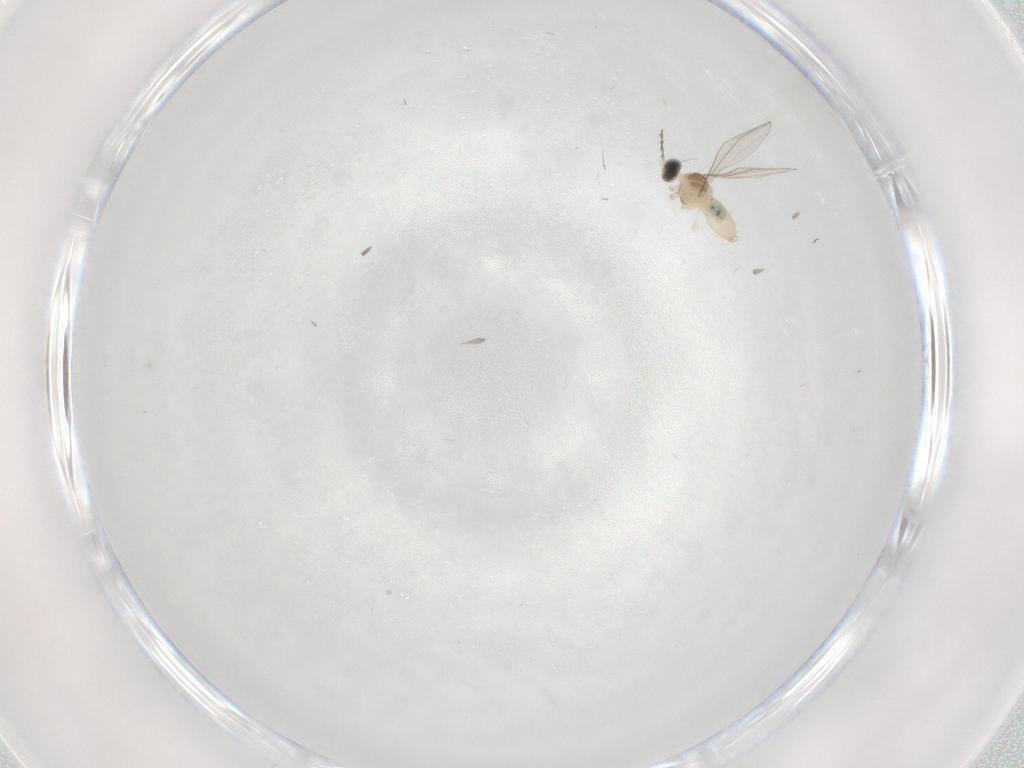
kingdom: Animalia
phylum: Arthropoda
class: Insecta
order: Diptera
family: Cecidomyiidae
